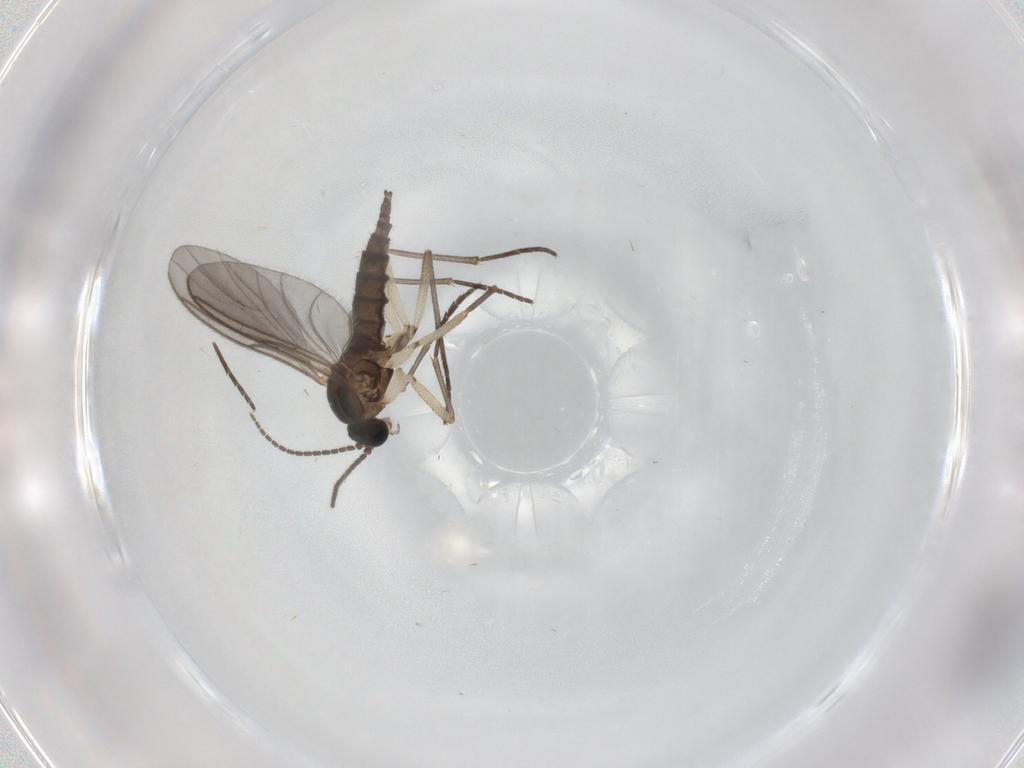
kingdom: Animalia
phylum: Arthropoda
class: Insecta
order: Diptera
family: Sciaridae
